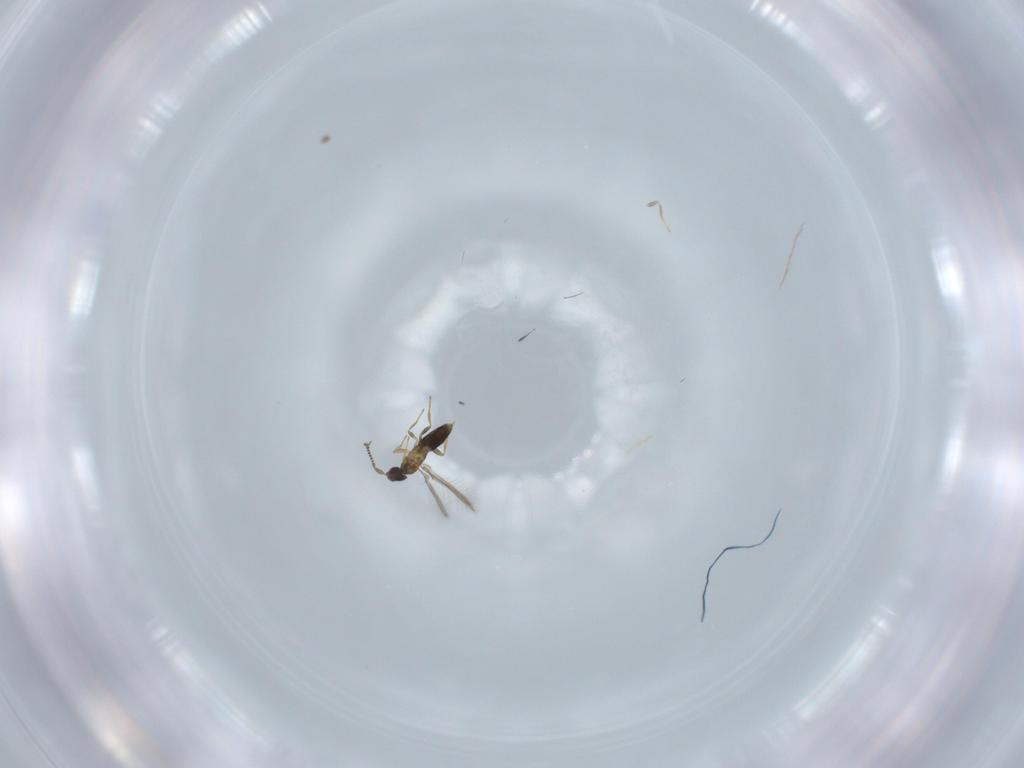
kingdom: Animalia
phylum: Arthropoda
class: Insecta
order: Hymenoptera
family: Mymaridae
